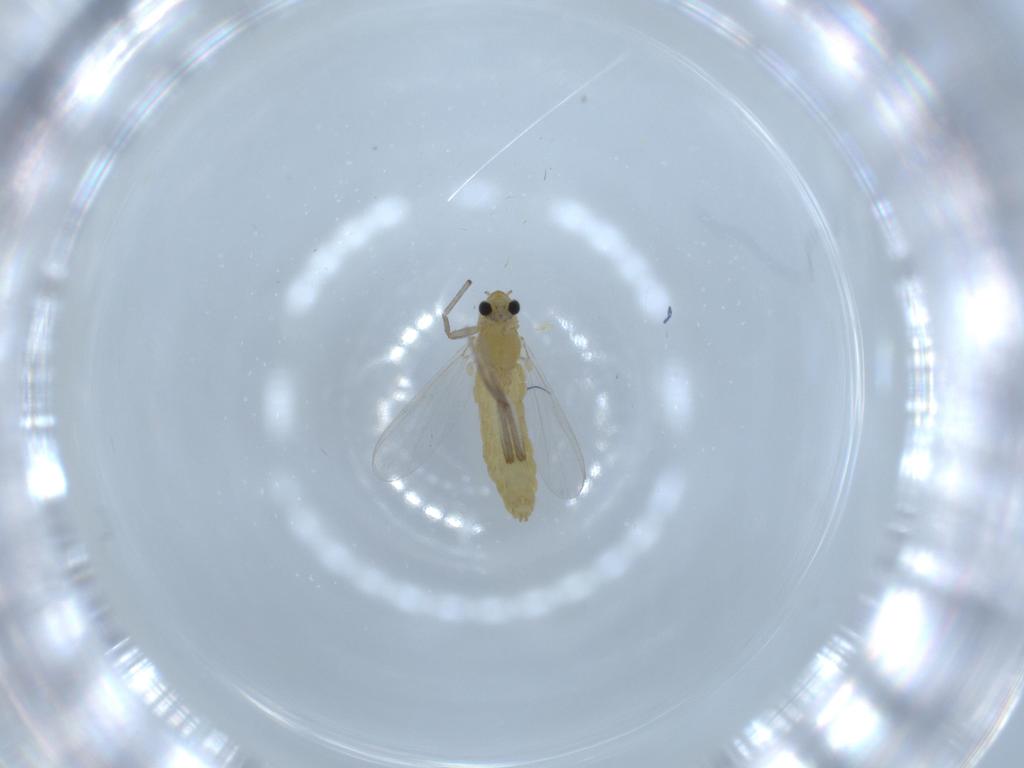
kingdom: Animalia
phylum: Arthropoda
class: Insecta
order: Diptera
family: Chironomidae
